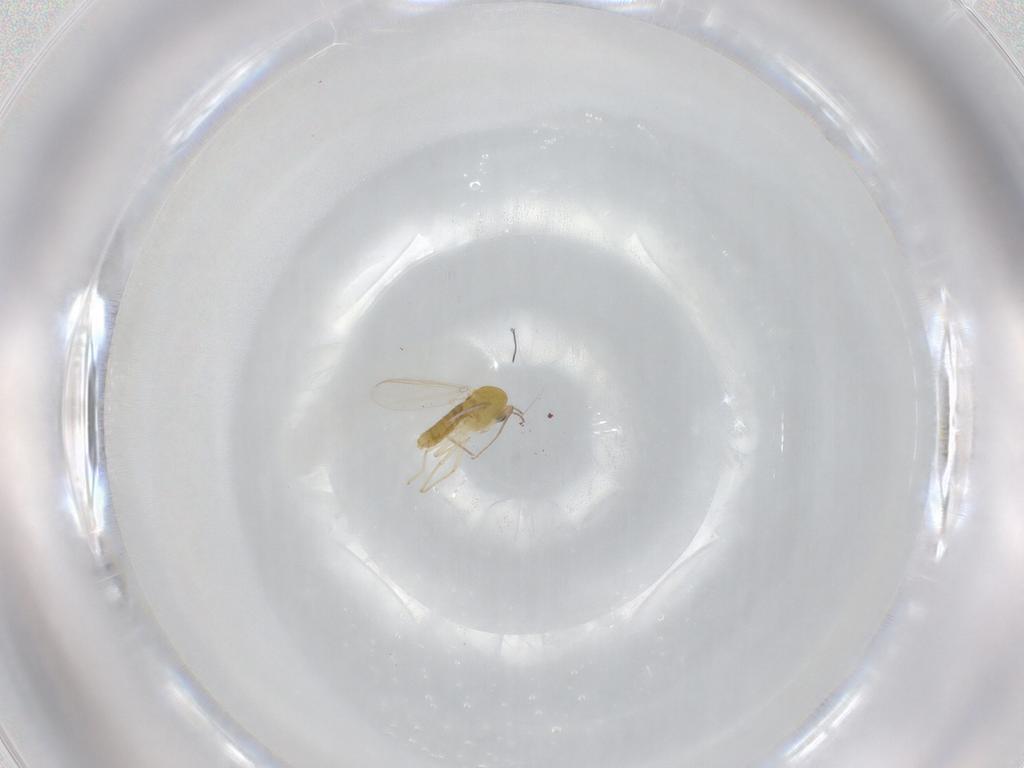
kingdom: Animalia
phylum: Arthropoda
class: Insecta
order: Diptera
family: Chironomidae
